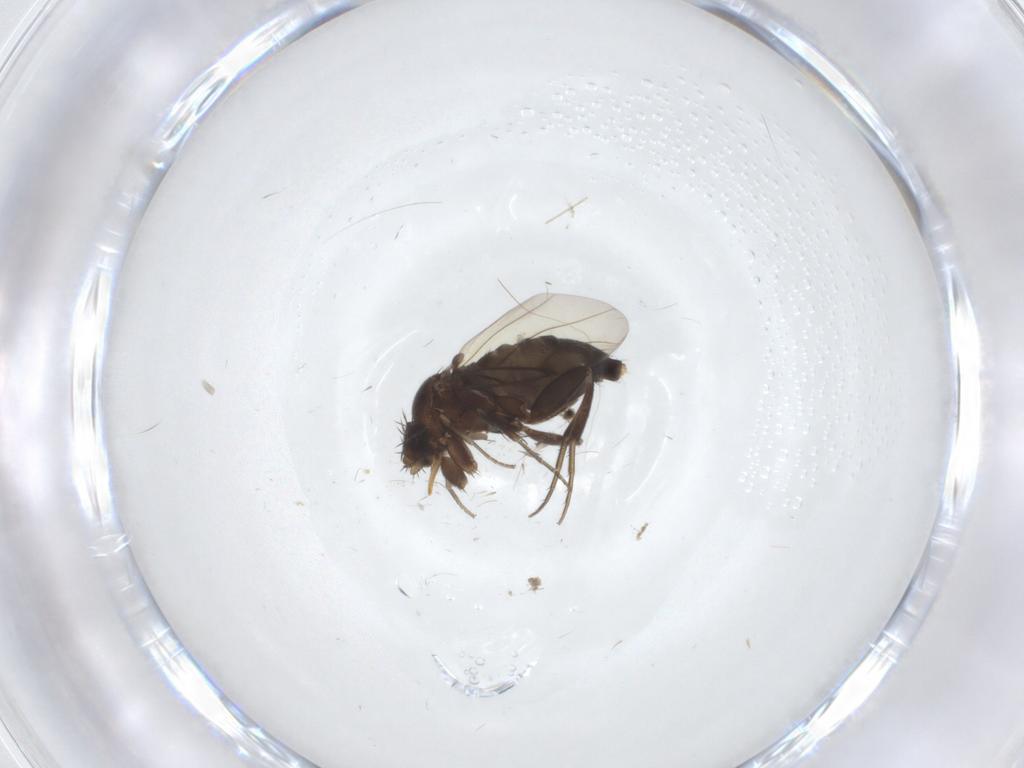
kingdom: Animalia
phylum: Arthropoda
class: Insecta
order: Diptera
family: Phoridae
